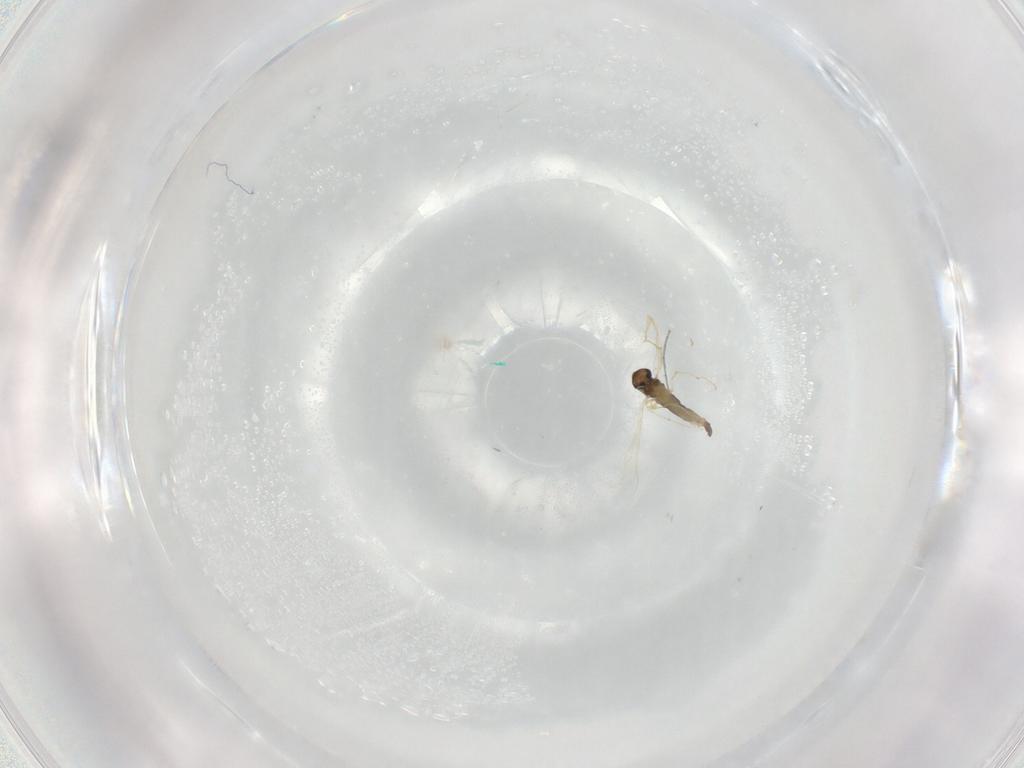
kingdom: Animalia
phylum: Arthropoda
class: Insecta
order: Diptera
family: Chironomidae
